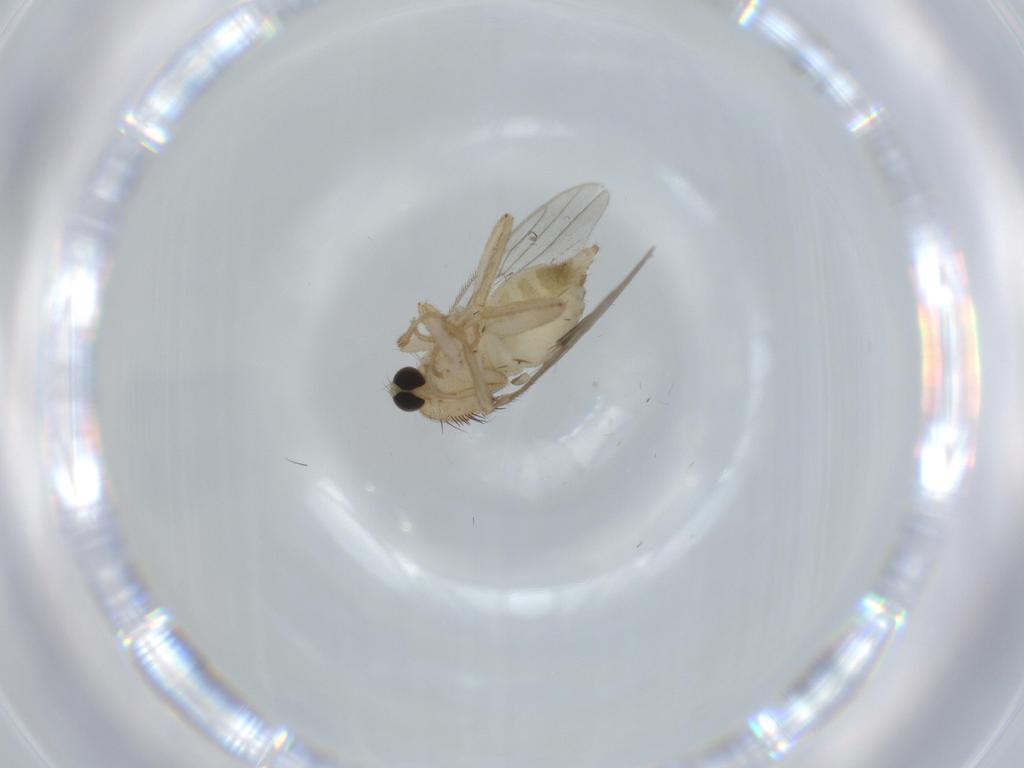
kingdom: Animalia
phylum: Arthropoda
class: Insecta
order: Diptera
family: Hybotidae
